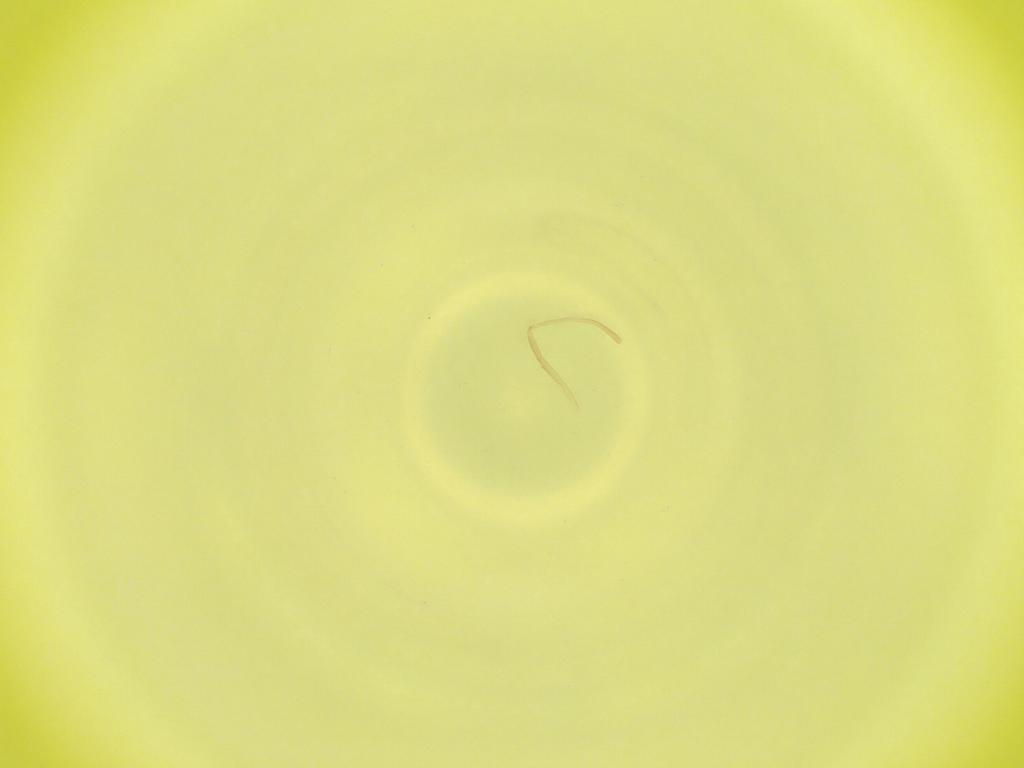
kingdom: Animalia
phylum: Arthropoda
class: Insecta
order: Diptera
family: Cecidomyiidae
